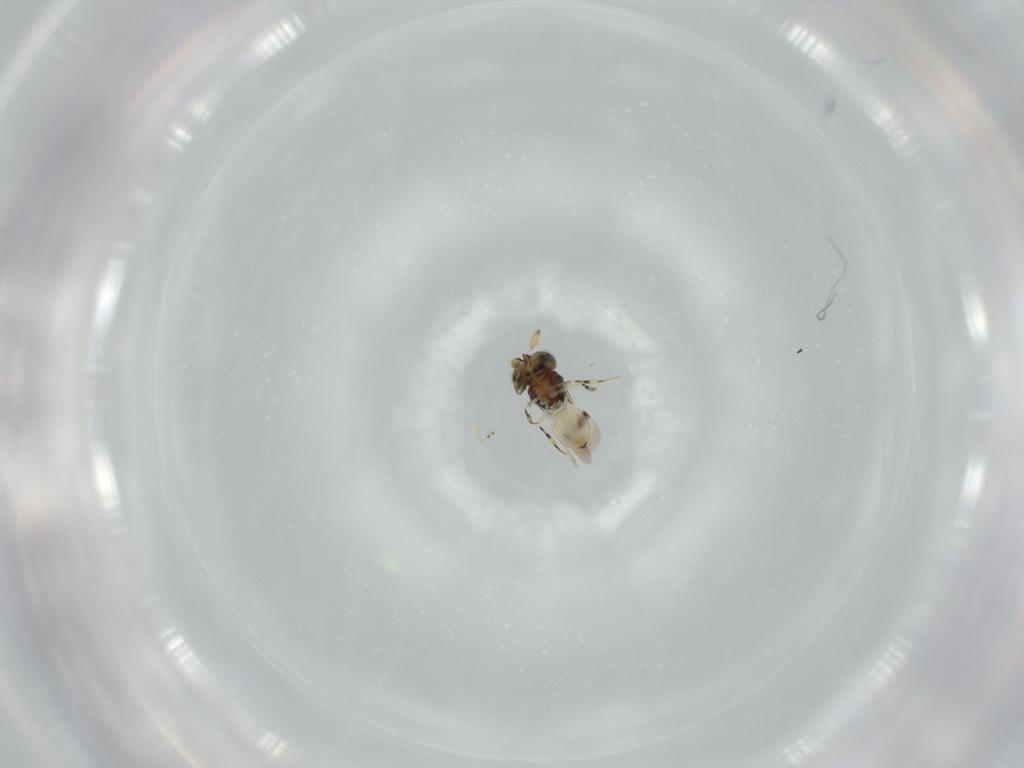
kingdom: Animalia
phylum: Arthropoda
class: Insecta
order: Hymenoptera
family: Scelionidae
